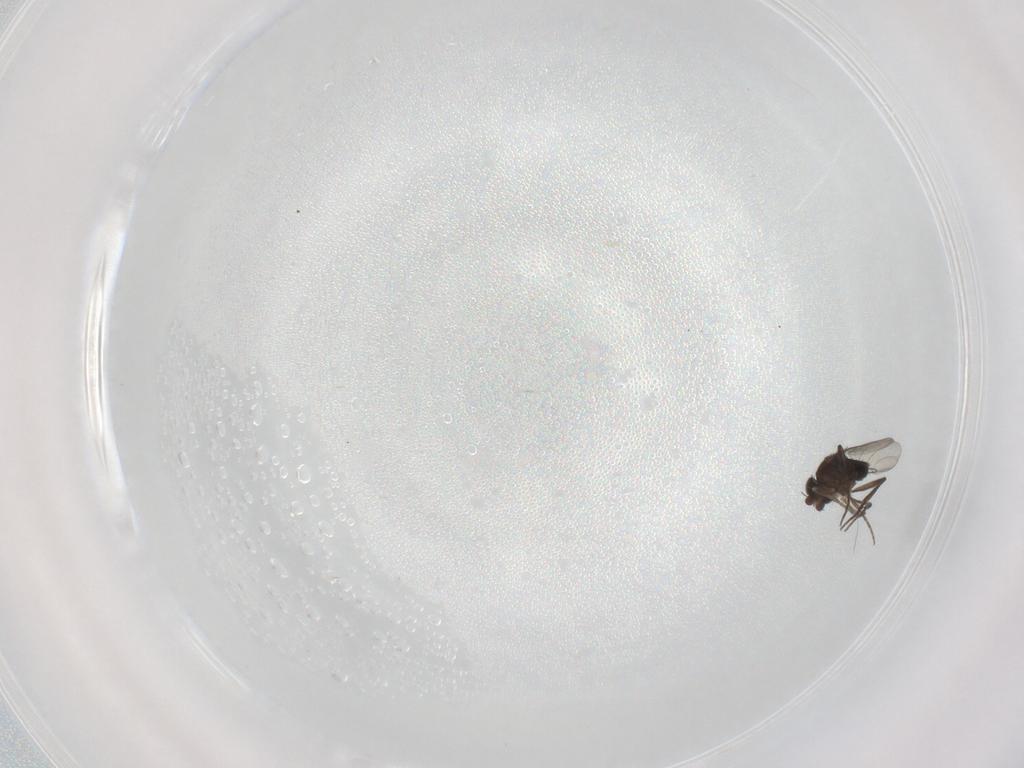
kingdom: Animalia
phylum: Arthropoda
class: Insecta
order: Diptera
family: Phoridae
